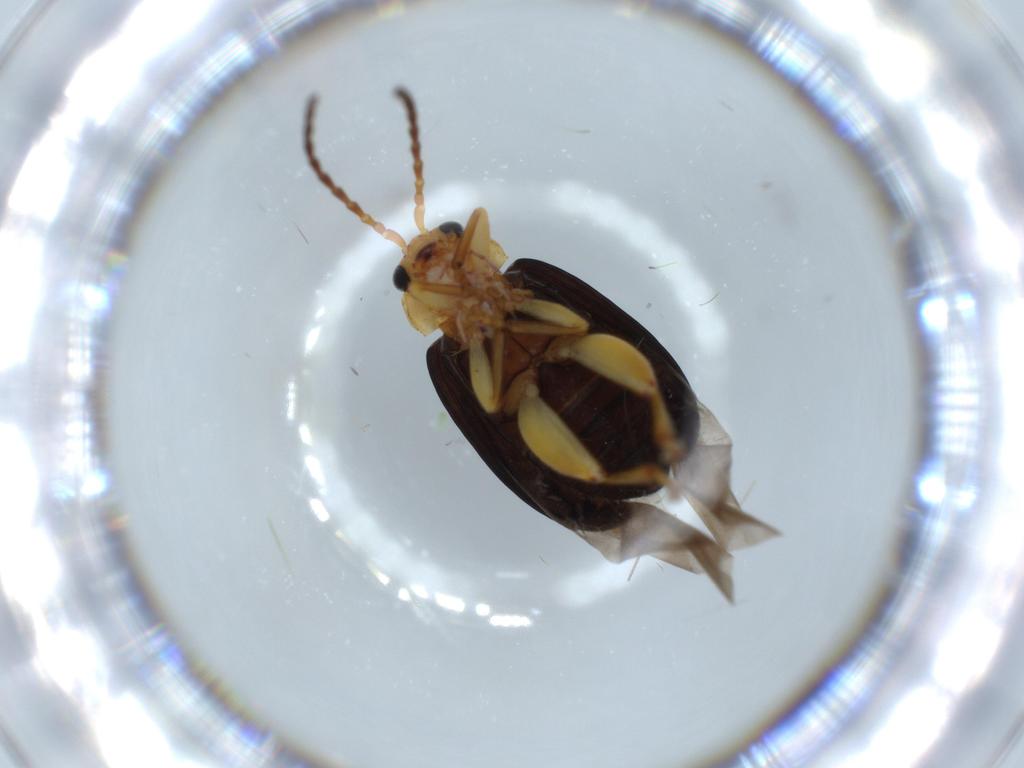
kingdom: Animalia
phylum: Arthropoda
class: Insecta
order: Coleoptera
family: Chrysomelidae
